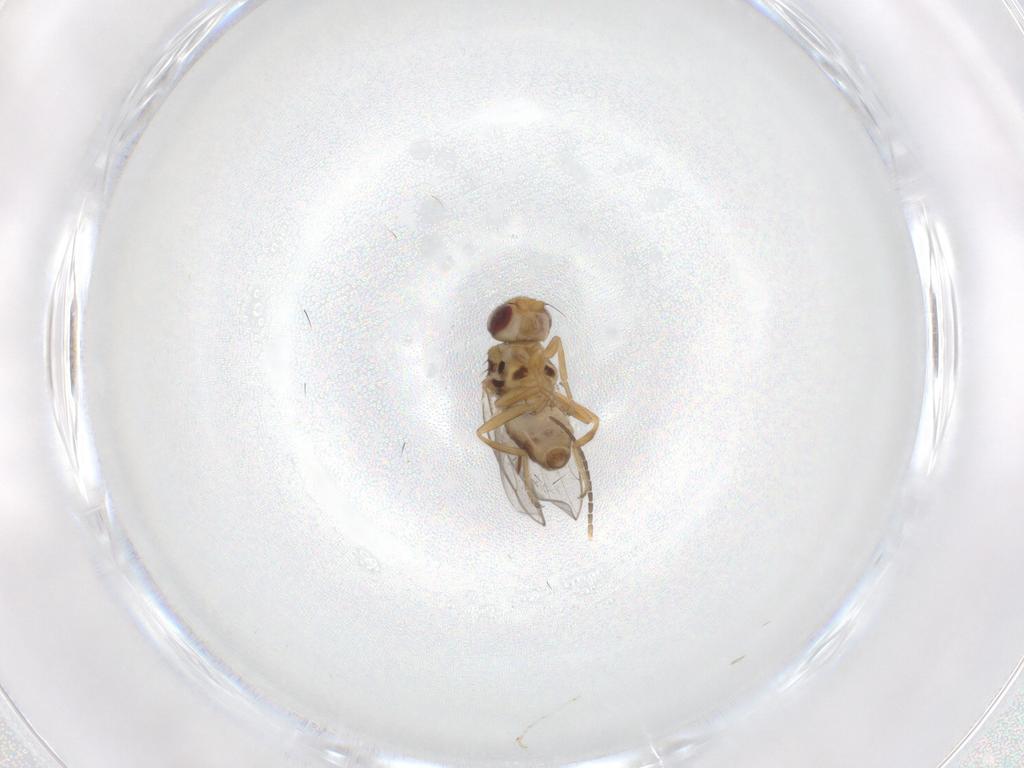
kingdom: Animalia
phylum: Arthropoda
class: Insecta
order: Diptera
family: Chloropidae
